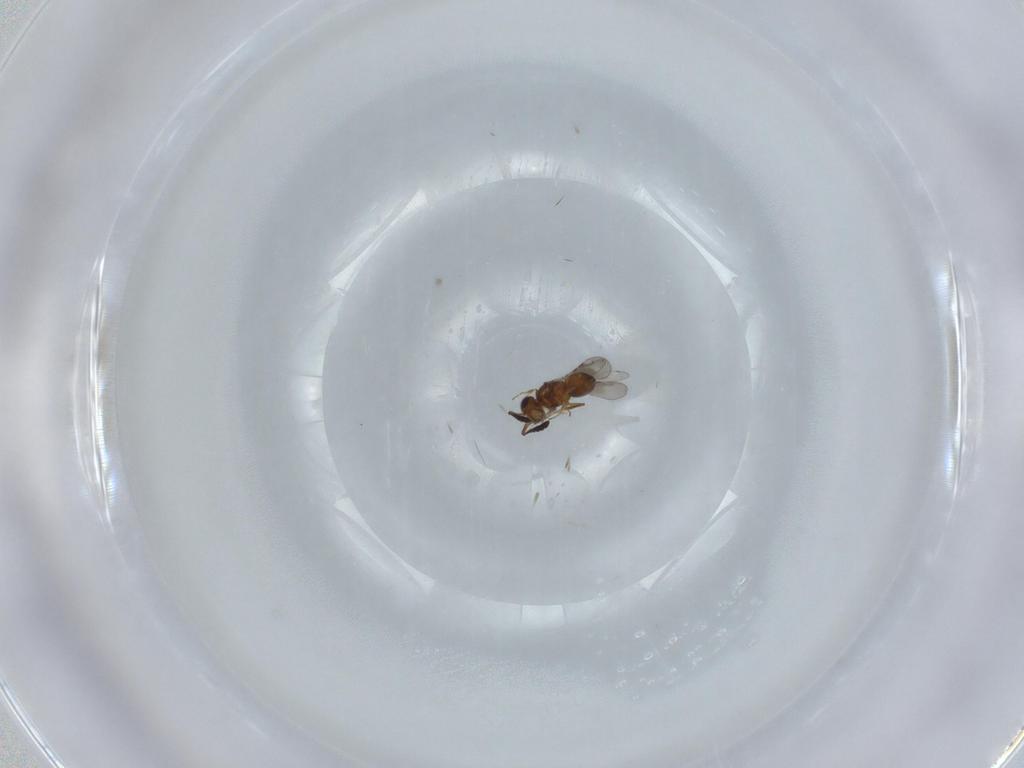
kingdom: Animalia
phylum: Arthropoda
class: Insecta
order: Hymenoptera
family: Ceraphronidae
